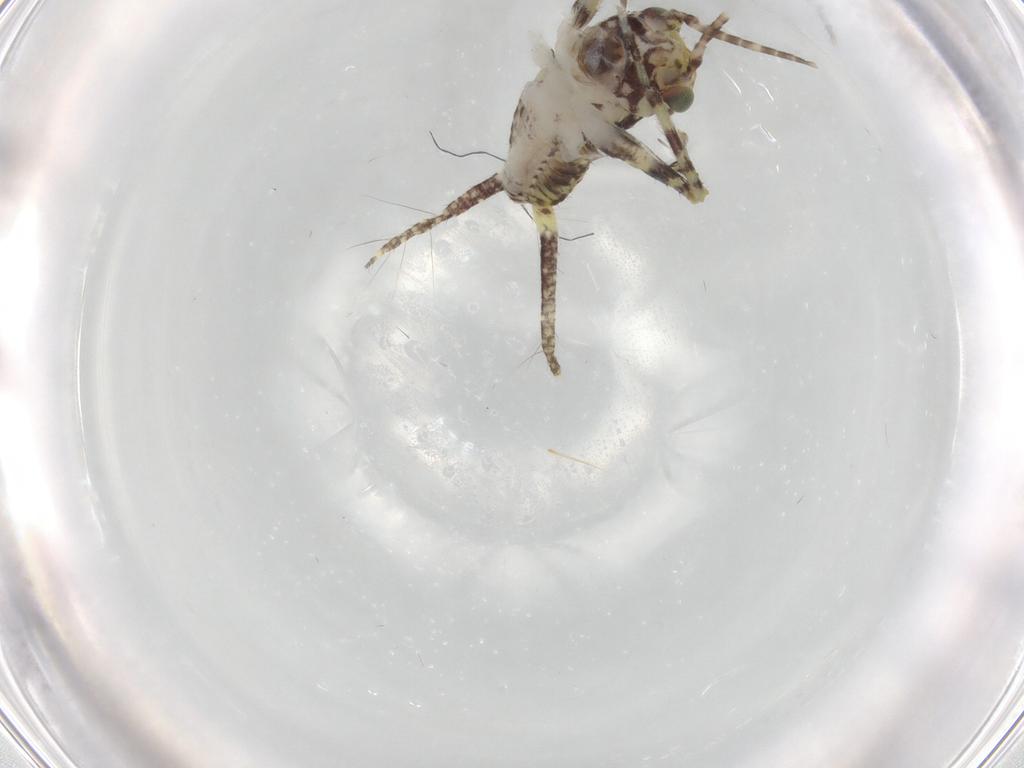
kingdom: Animalia
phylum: Arthropoda
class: Insecta
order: Orthoptera
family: Gryllidae
